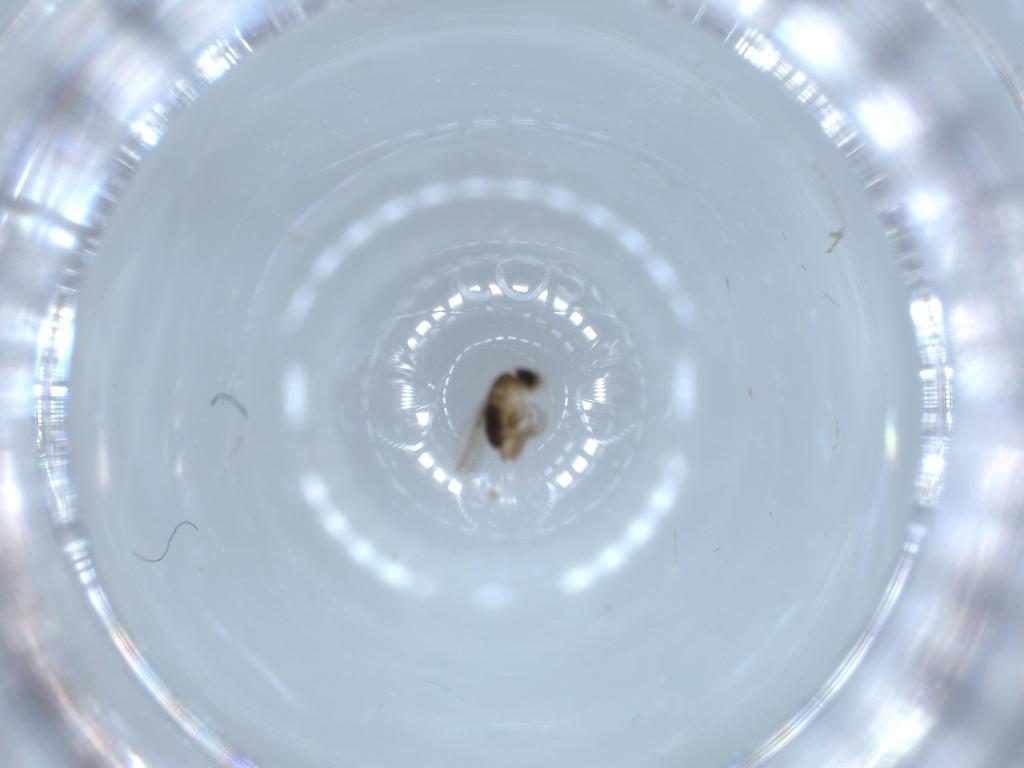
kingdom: Animalia
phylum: Arthropoda
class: Insecta
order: Diptera
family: Phoridae
